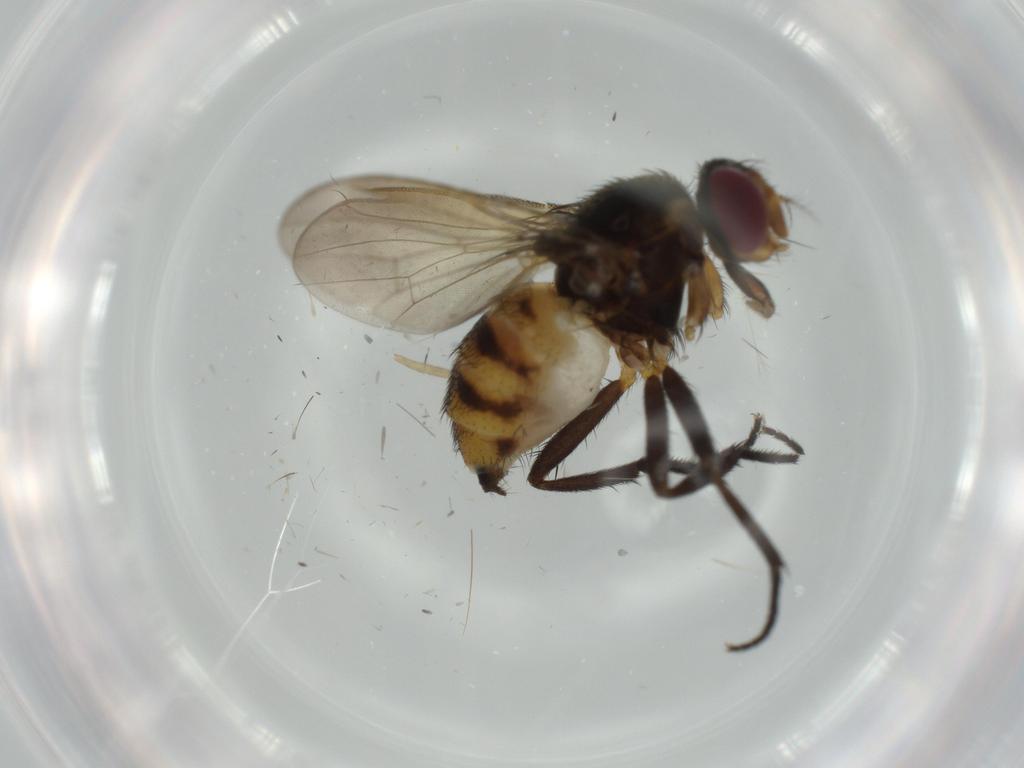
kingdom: Animalia
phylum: Arthropoda
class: Insecta
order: Diptera
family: Anthomyiidae
